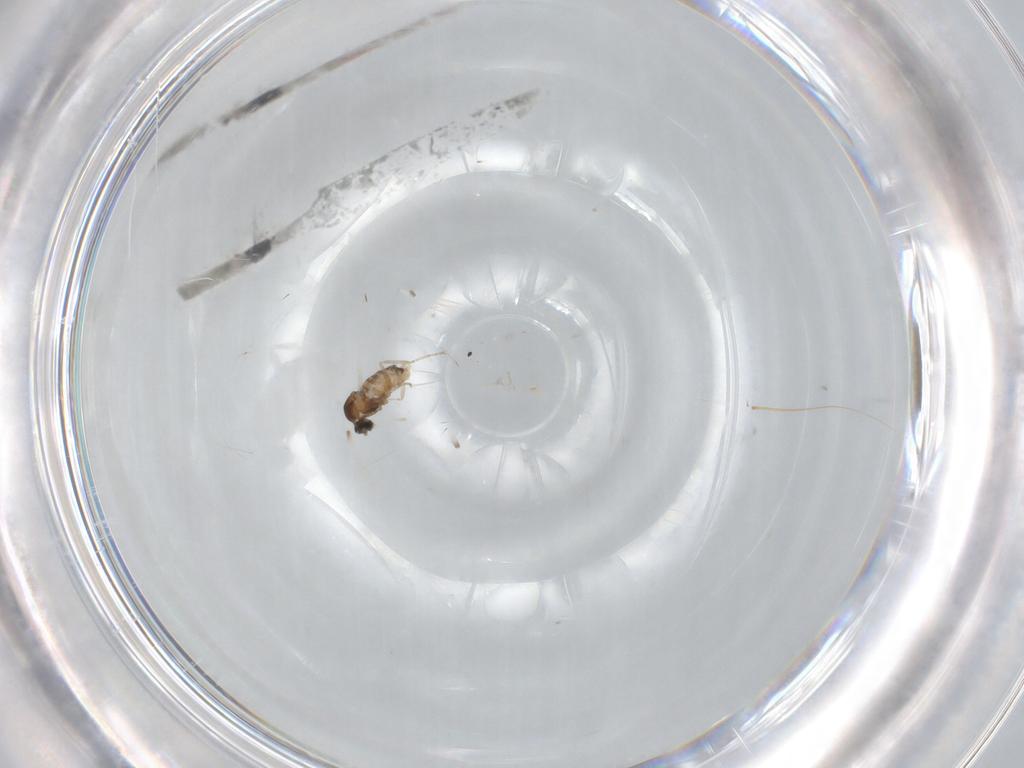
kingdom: Animalia
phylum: Arthropoda
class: Insecta
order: Diptera
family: Cecidomyiidae
